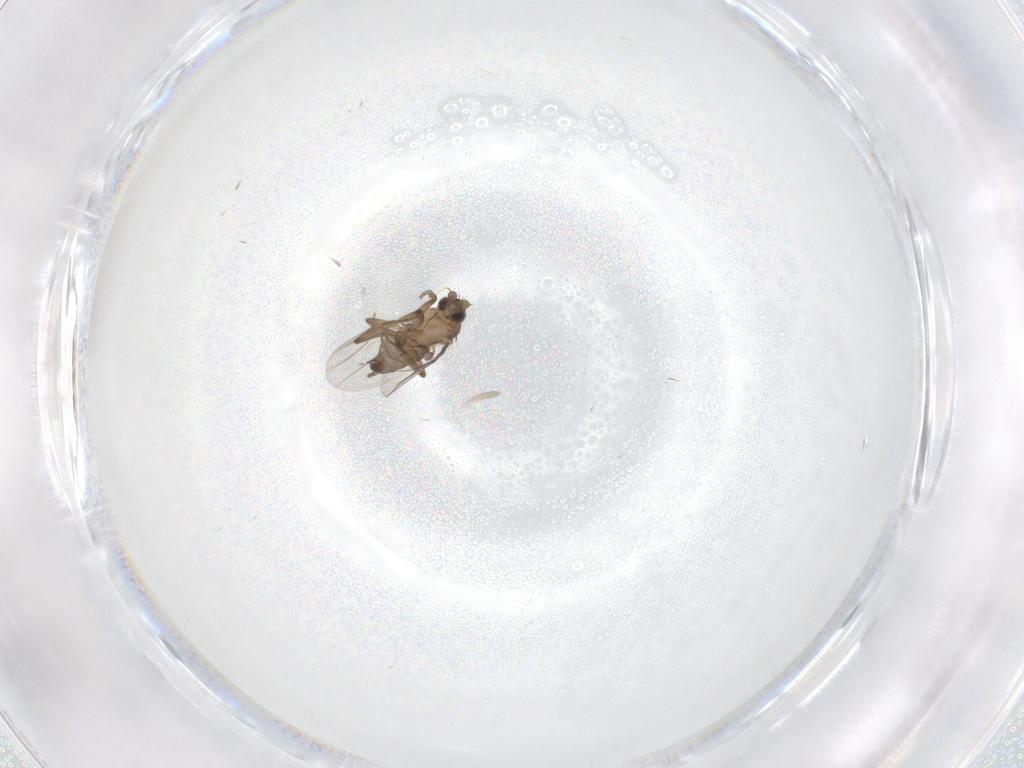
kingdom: Animalia
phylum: Arthropoda
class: Insecta
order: Diptera
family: Phoridae
